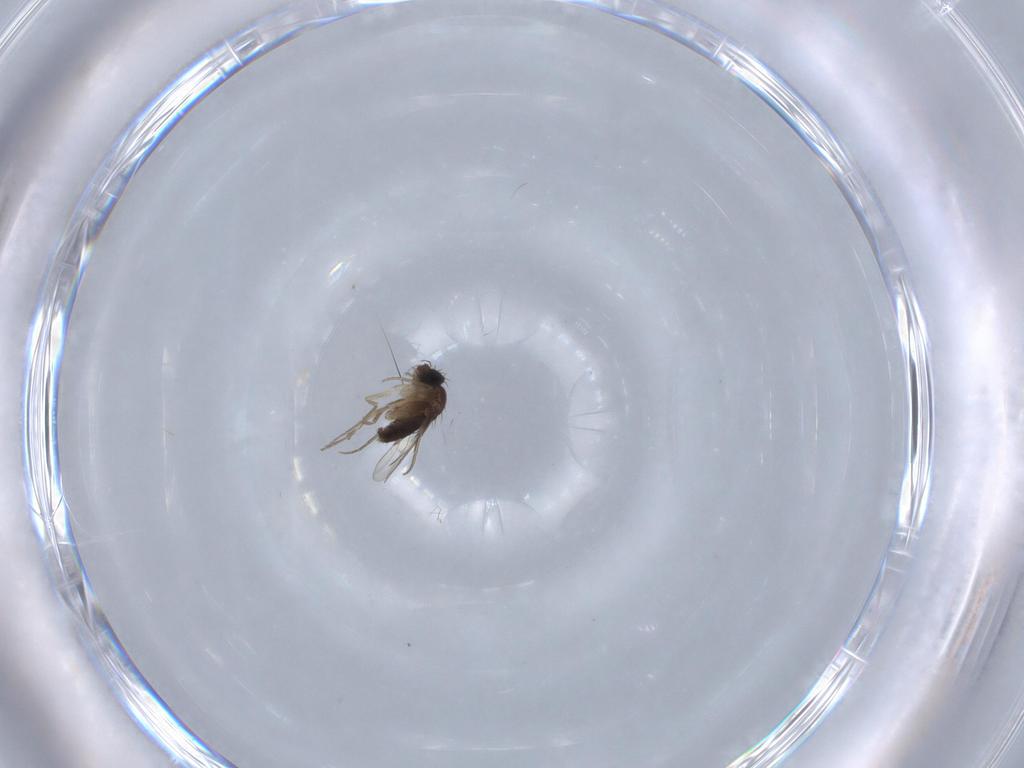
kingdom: Animalia
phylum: Arthropoda
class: Insecta
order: Diptera
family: Phoridae
